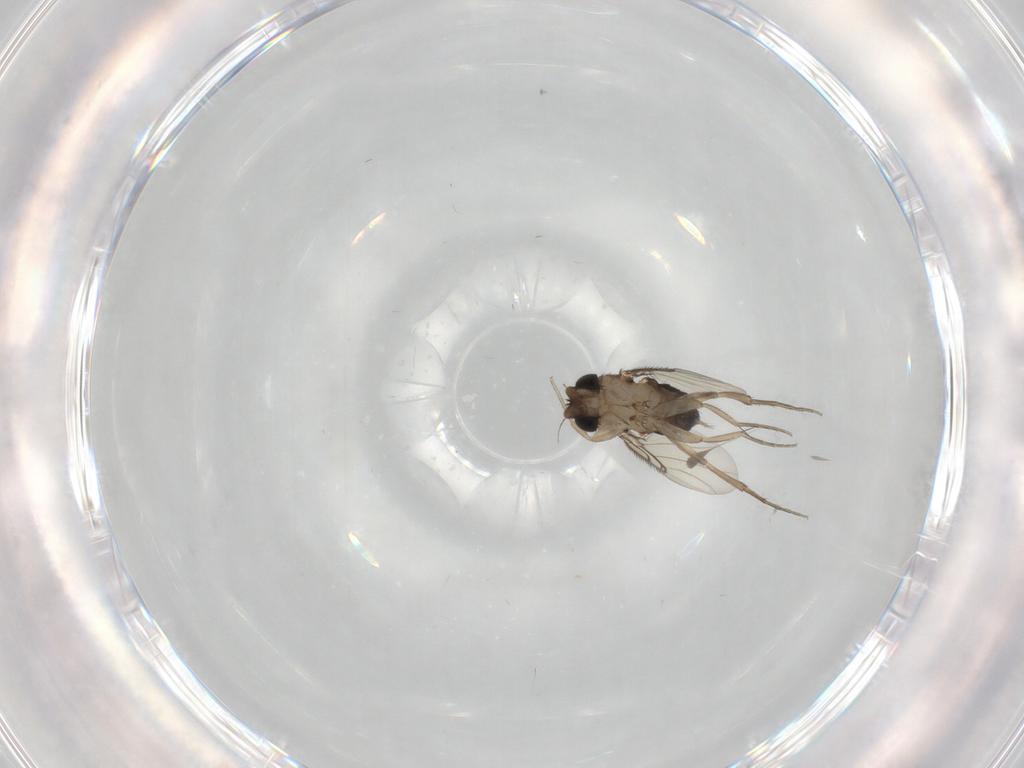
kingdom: Animalia
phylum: Arthropoda
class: Insecta
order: Diptera
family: Phoridae
